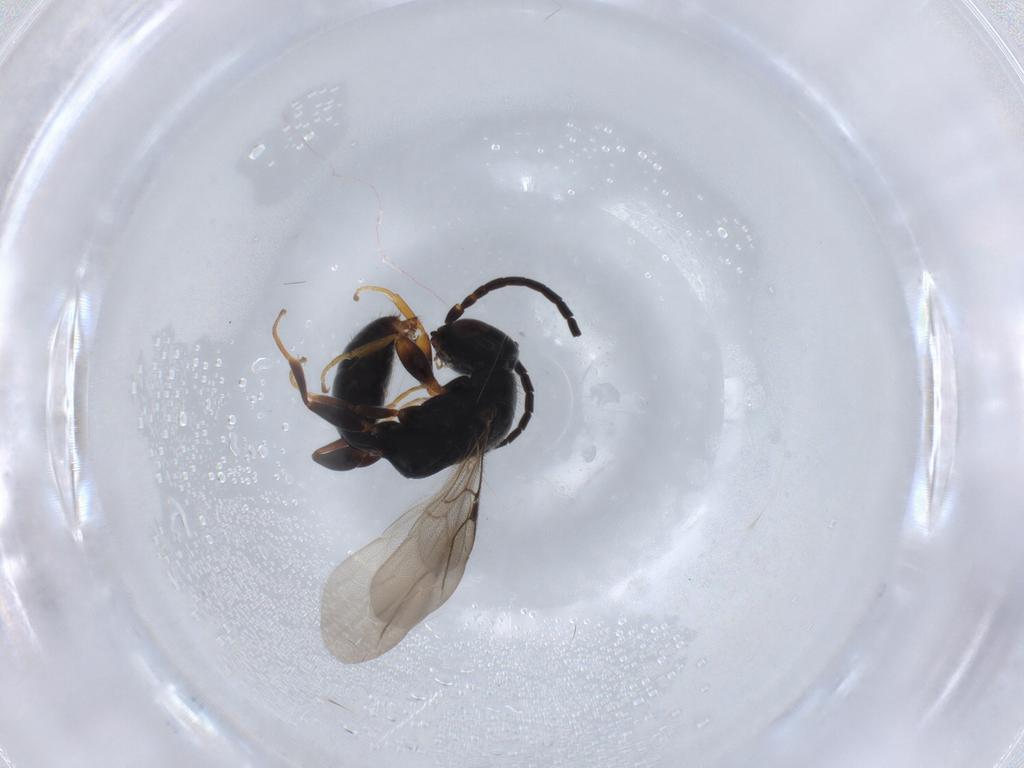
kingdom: Animalia
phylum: Arthropoda
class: Insecta
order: Hymenoptera
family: Bethylidae
